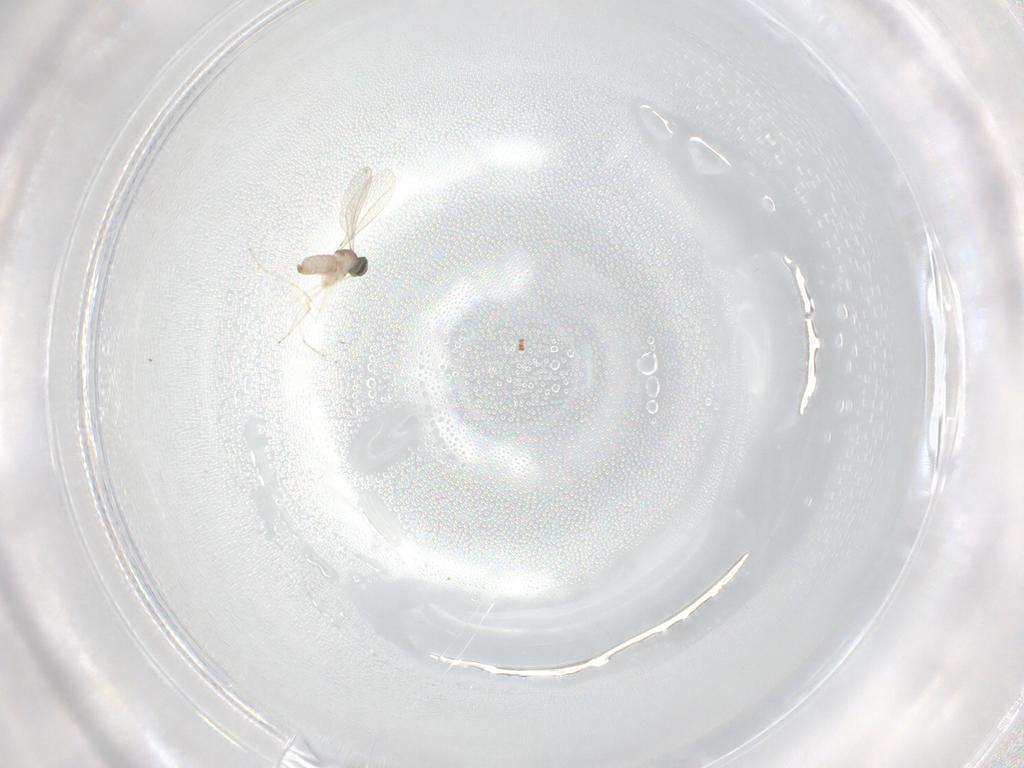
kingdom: Animalia
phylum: Arthropoda
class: Insecta
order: Diptera
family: Cecidomyiidae
